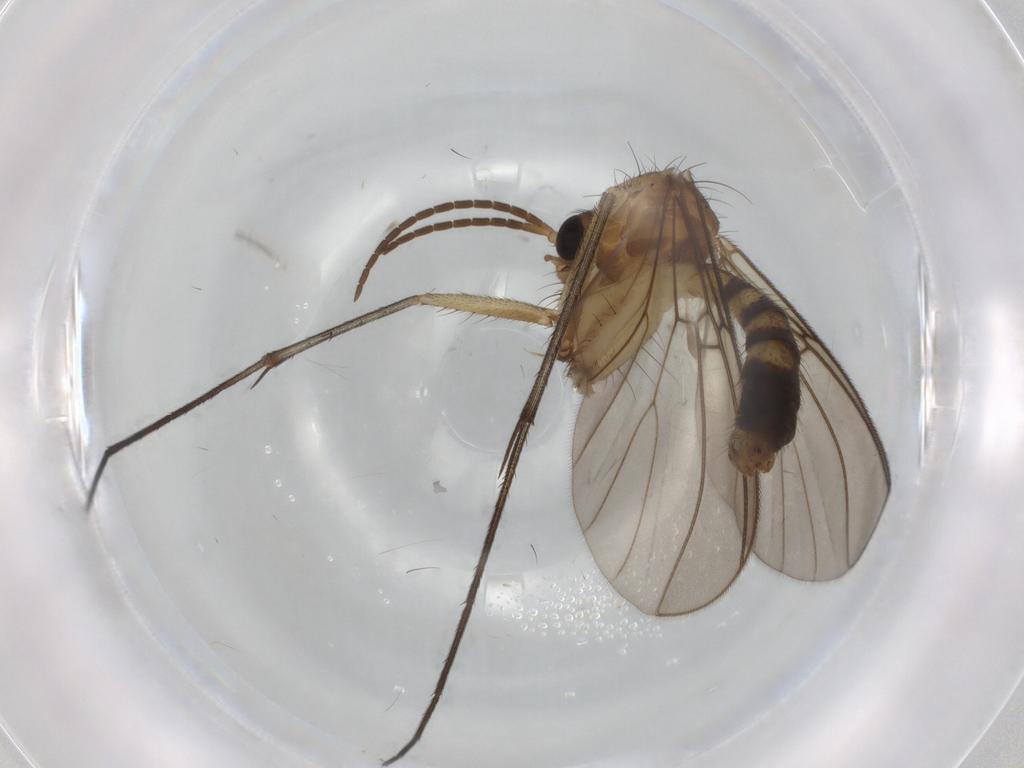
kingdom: Animalia
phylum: Arthropoda
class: Insecta
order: Diptera
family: Mycetophilidae
